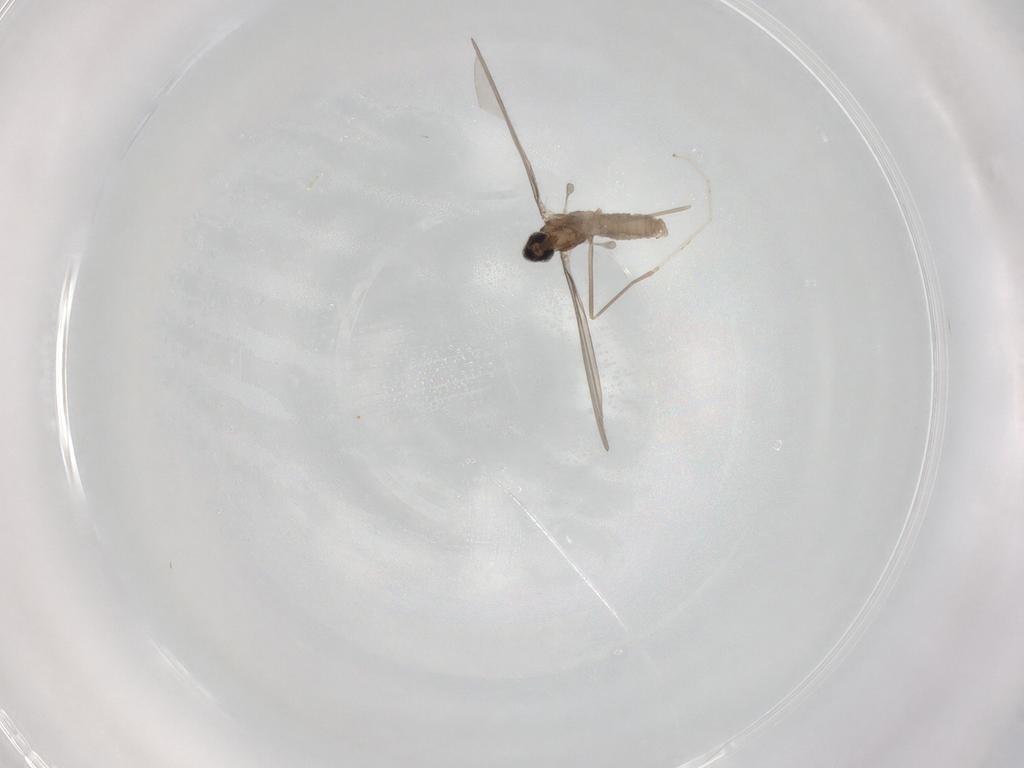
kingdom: Animalia
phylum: Arthropoda
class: Insecta
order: Diptera
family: Cecidomyiidae
